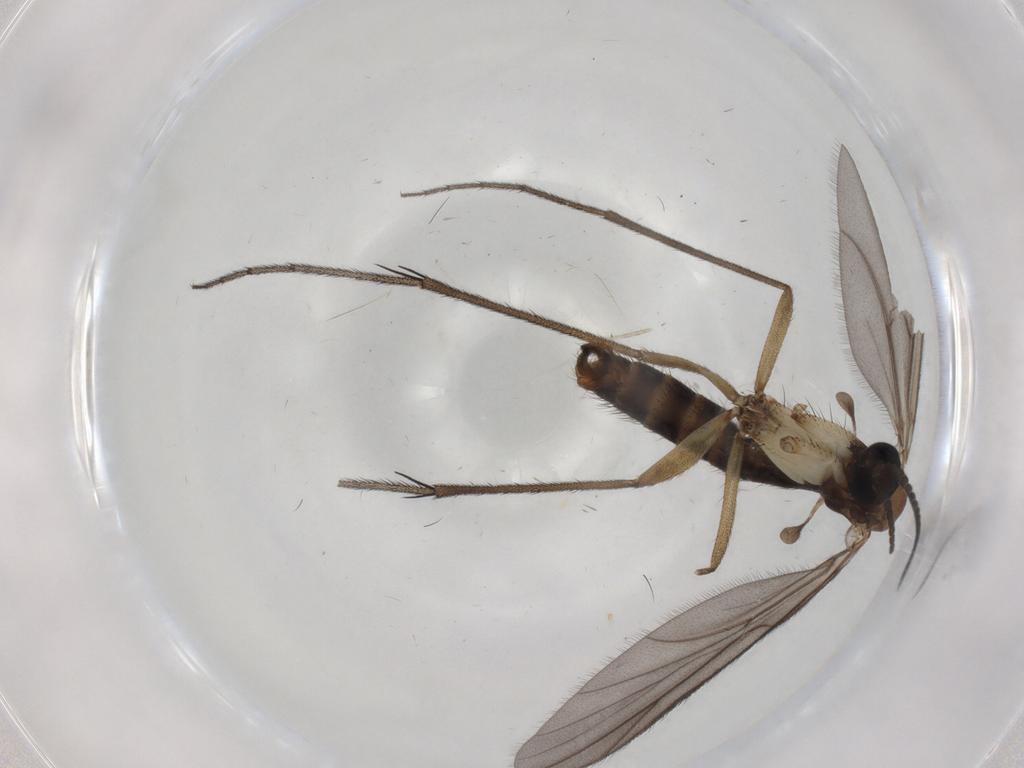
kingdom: Animalia
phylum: Arthropoda
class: Insecta
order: Diptera
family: Ditomyiidae
